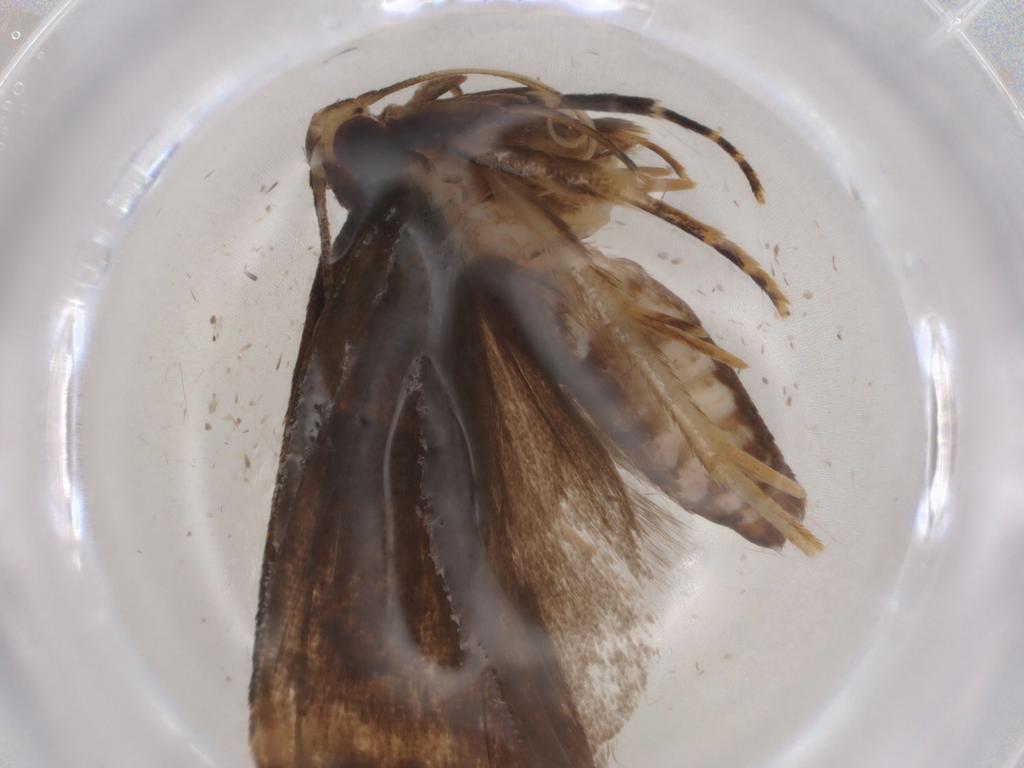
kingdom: Animalia
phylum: Arthropoda
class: Insecta
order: Lepidoptera
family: Gelechiidae
